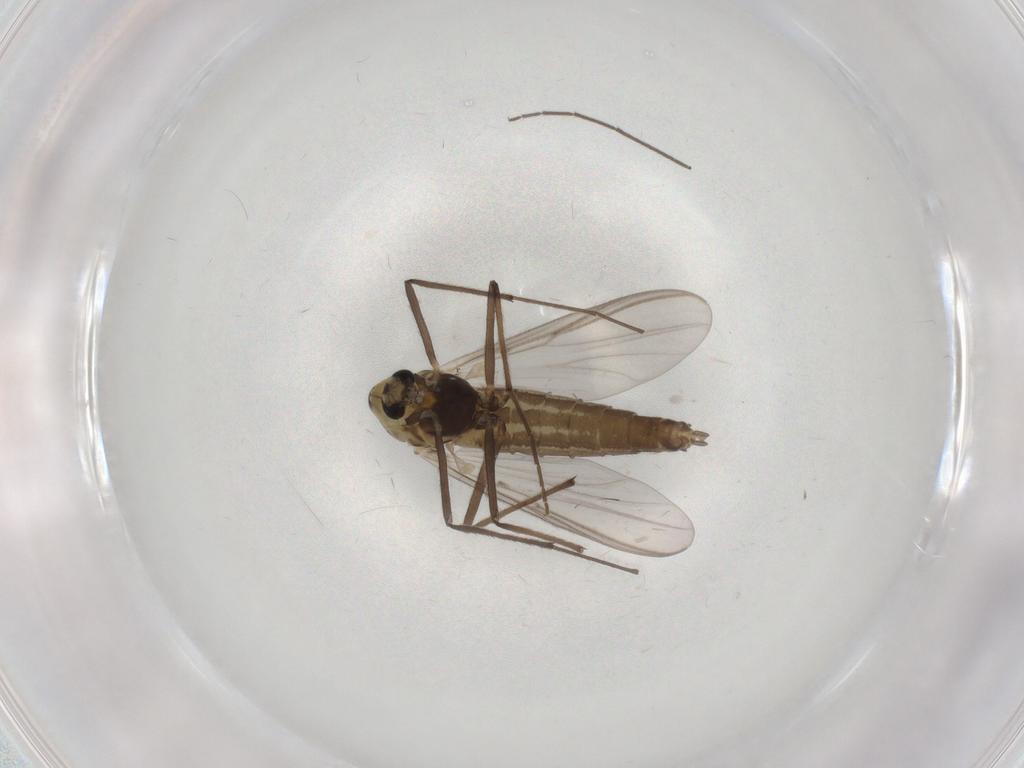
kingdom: Animalia
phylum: Arthropoda
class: Insecta
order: Diptera
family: Chironomidae
